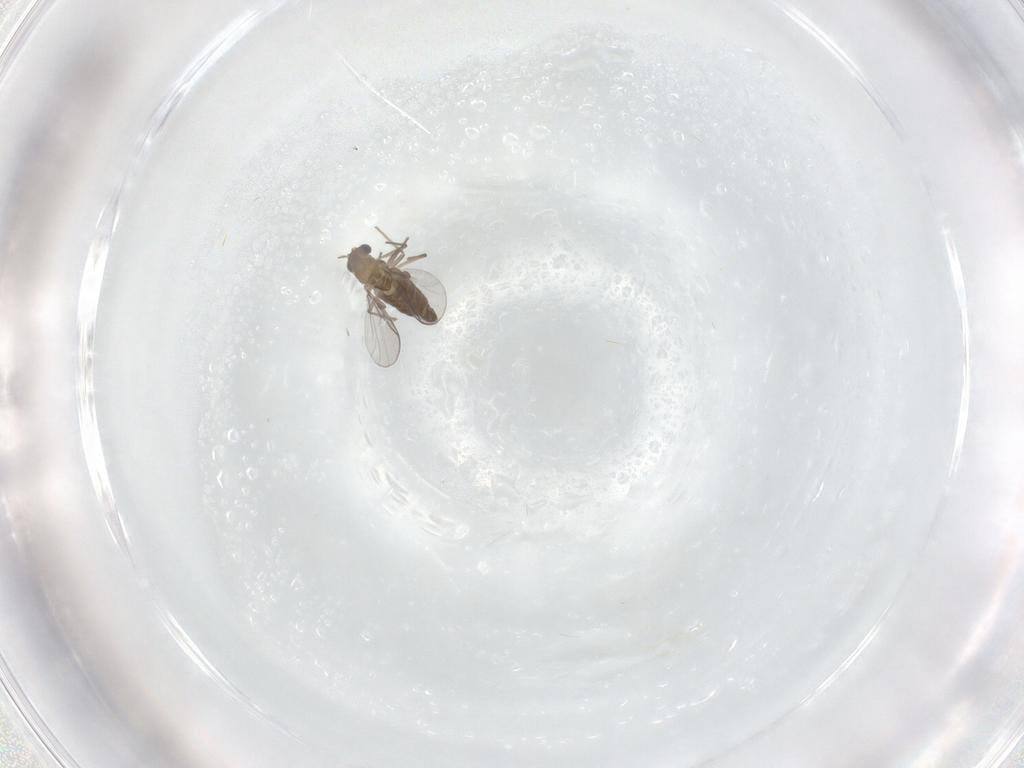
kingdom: Animalia
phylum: Arthropoda
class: Insecta
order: Diptera
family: Chironomidae
